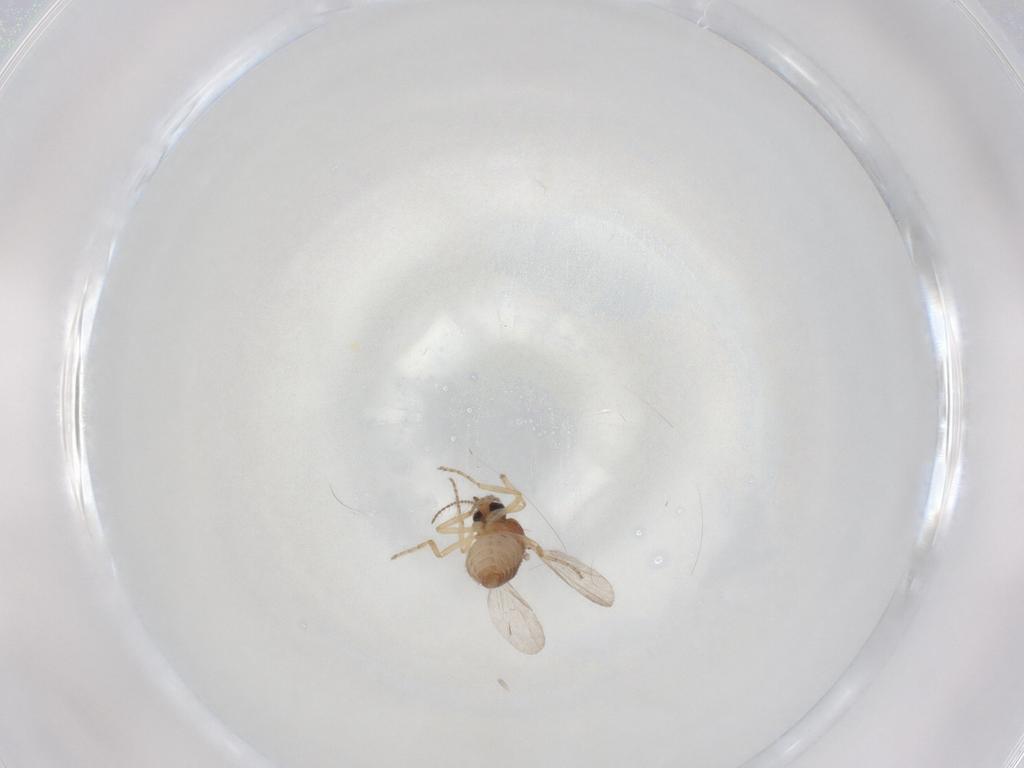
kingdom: Animalia
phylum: Arthropoda
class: Insecta
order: Diptera
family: Ceratopogonidae
